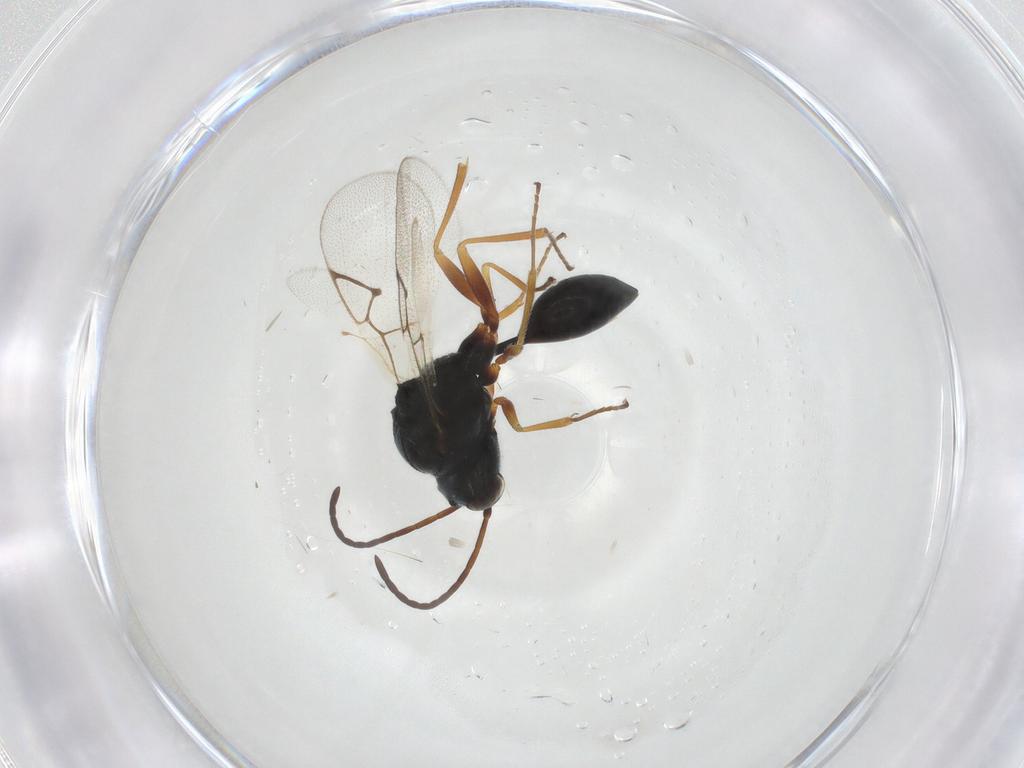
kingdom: Animalia
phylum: Arthropoda
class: Insecta
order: Hymenoptera
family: Figitidae
